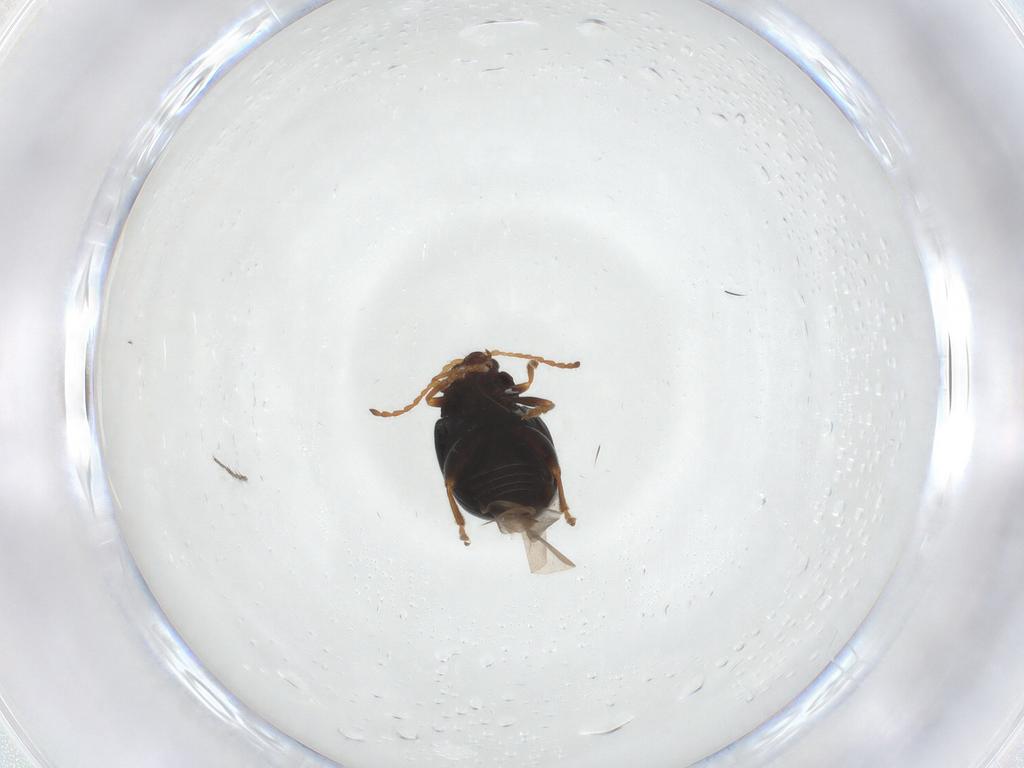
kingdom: Animalia
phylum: Arthropoda
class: Insecta
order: Coleoptera
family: Chrysomelidae
